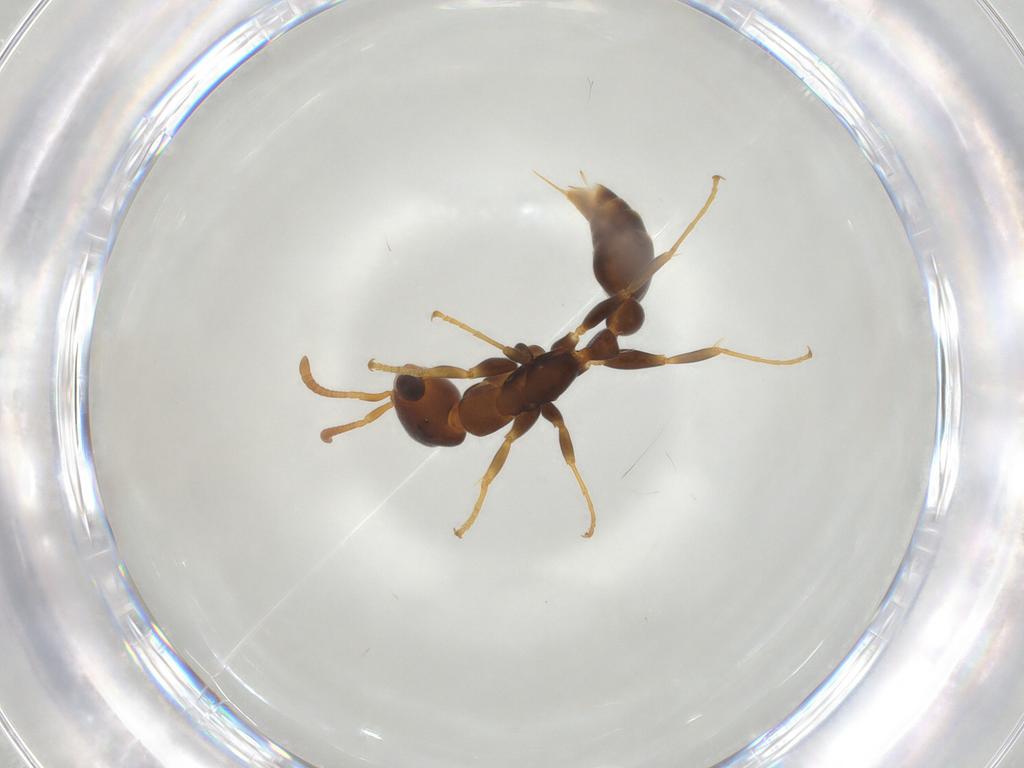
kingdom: Animalia
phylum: Arthropoda
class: Insecta
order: Hymenoptera
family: Formicidae
